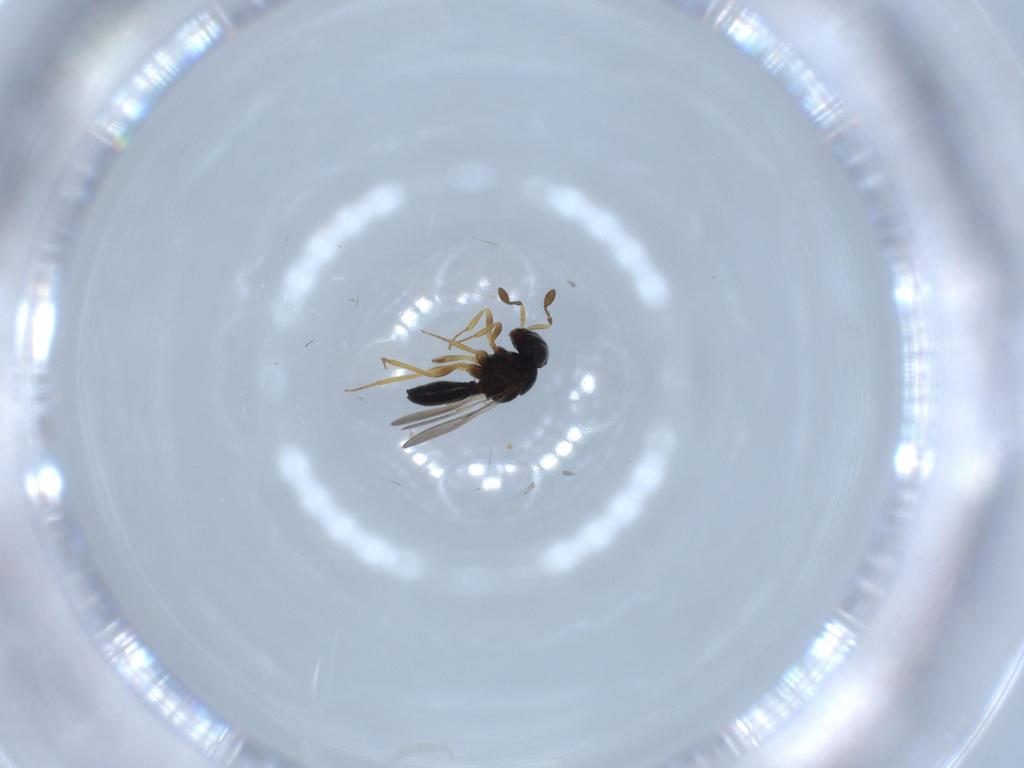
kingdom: Animalia
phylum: Arthropoda
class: Insecta
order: Hymenoptera
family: Scelionidae
